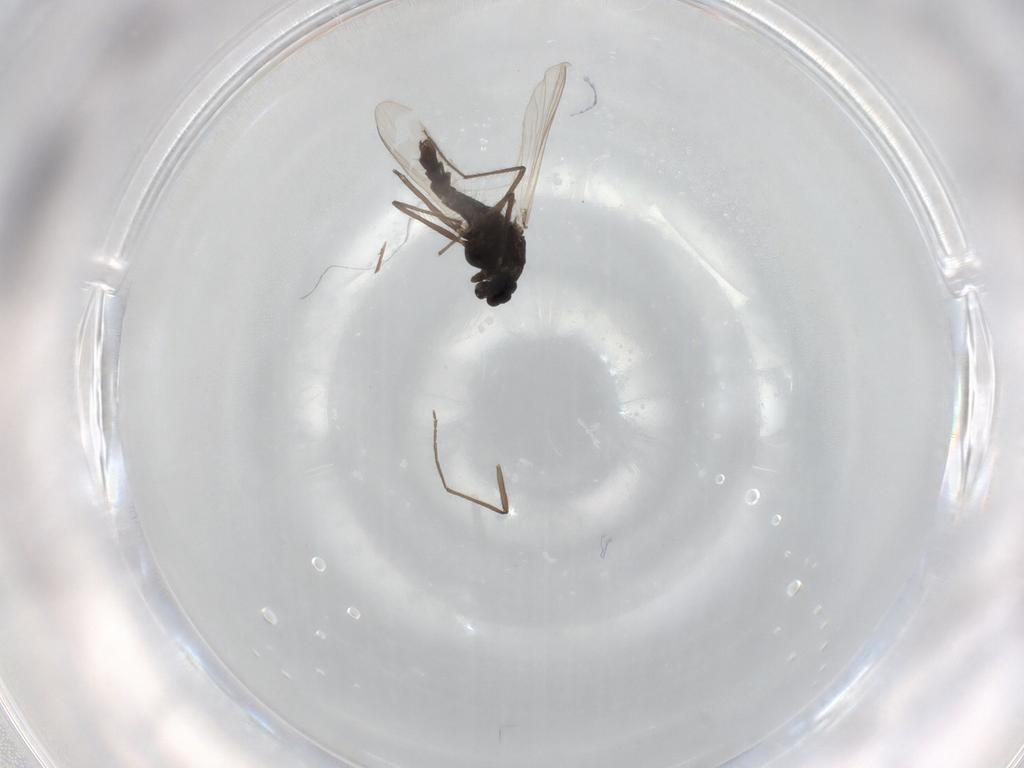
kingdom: Animalia
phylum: Arthropoda
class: Insecta
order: Diptera
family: Chironomidae
